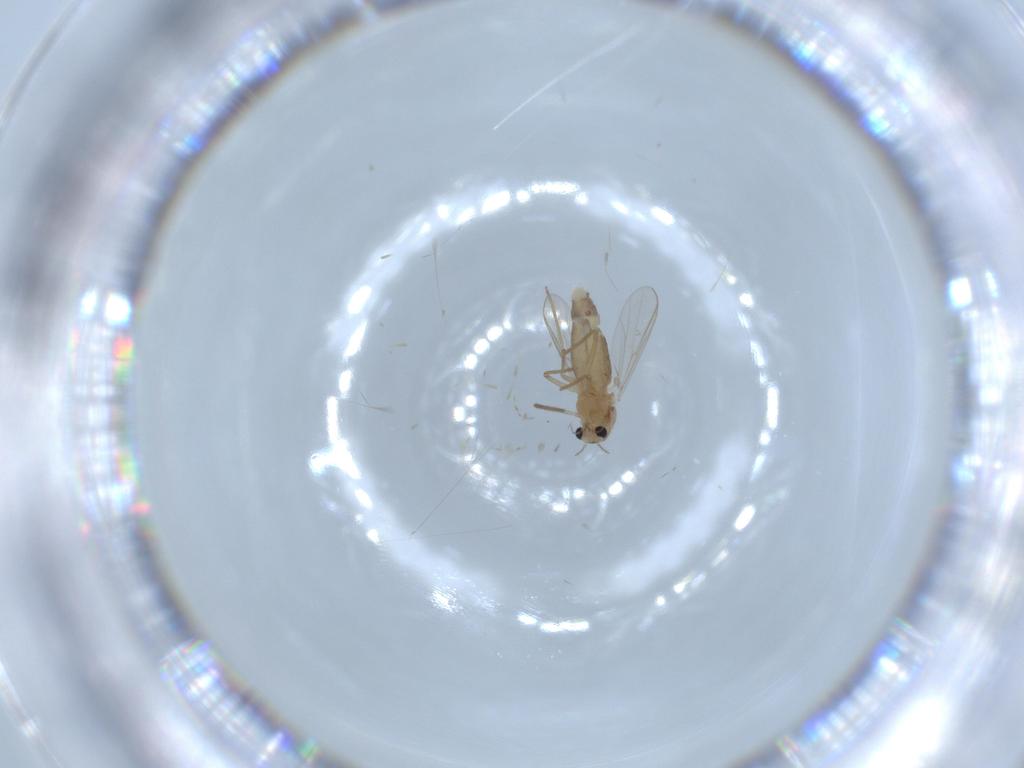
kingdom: Animalia
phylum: Arthropoda
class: Insecta
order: Diptera
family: Chironomidae
